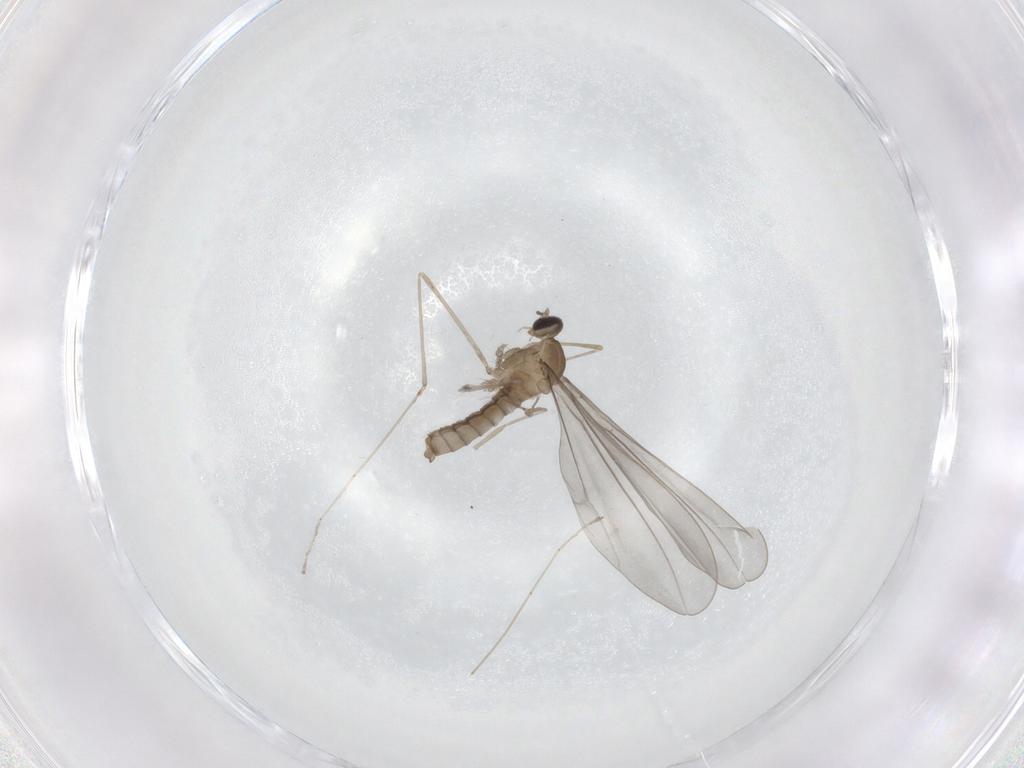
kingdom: Animalia
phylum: Arthropoda
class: Insecta
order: Diptera
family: Cecidomyiidae
